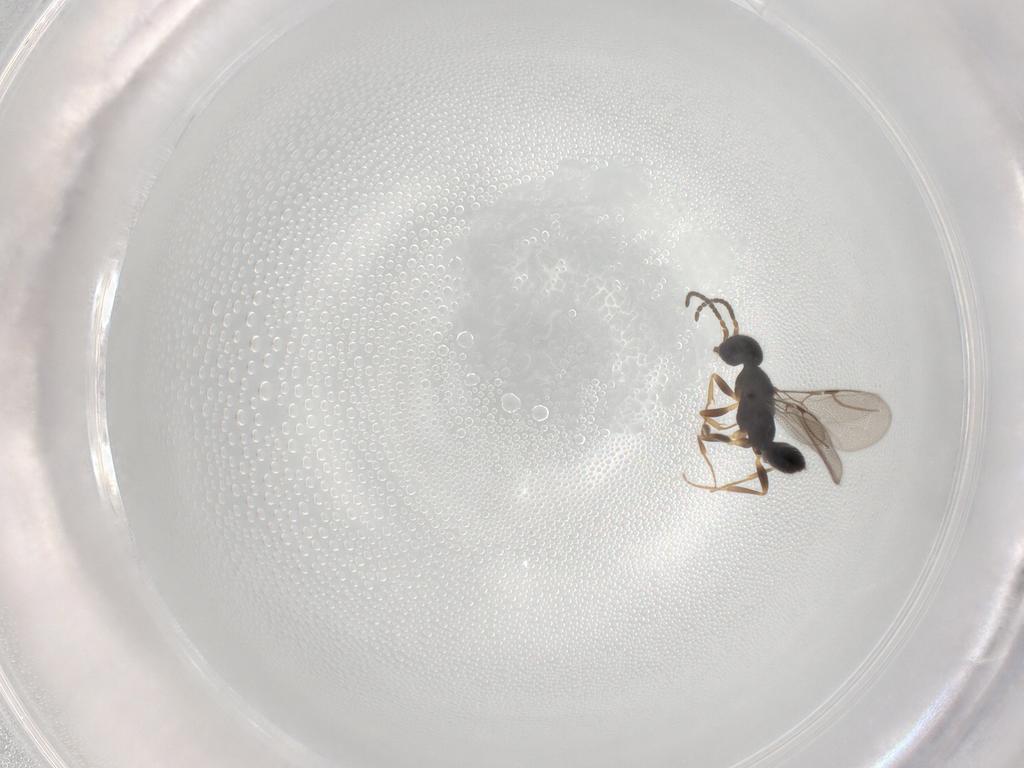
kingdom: Animalia
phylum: Arthropoda
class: Insecta
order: Hymenoptera
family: Bethylidae
